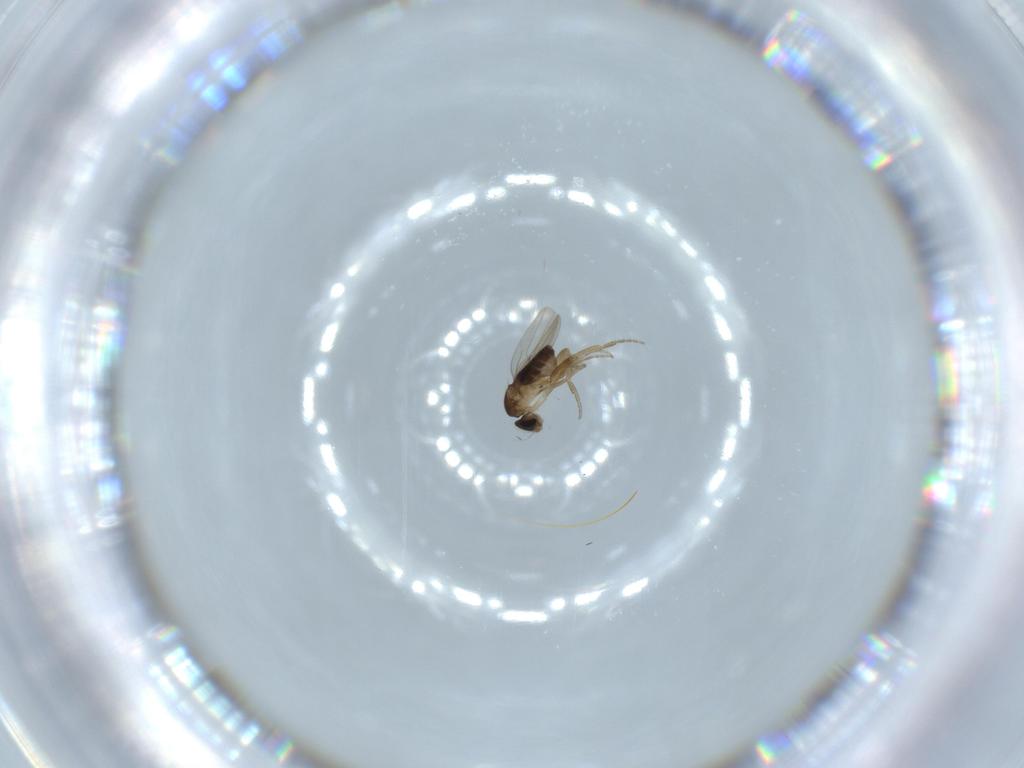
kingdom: Animalia
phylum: Arthropoda
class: Insecta
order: Diptera
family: Phoridae
